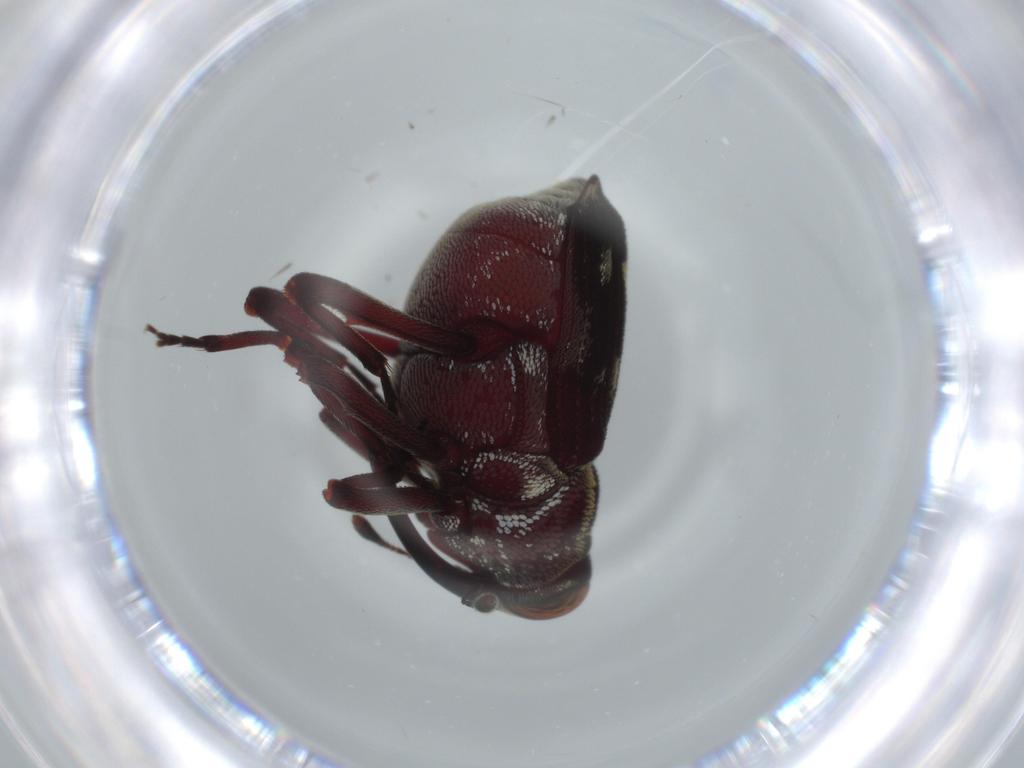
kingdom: Animalia
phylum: Arthropoda
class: Insecta
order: Coleoptera
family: Curculionidae
